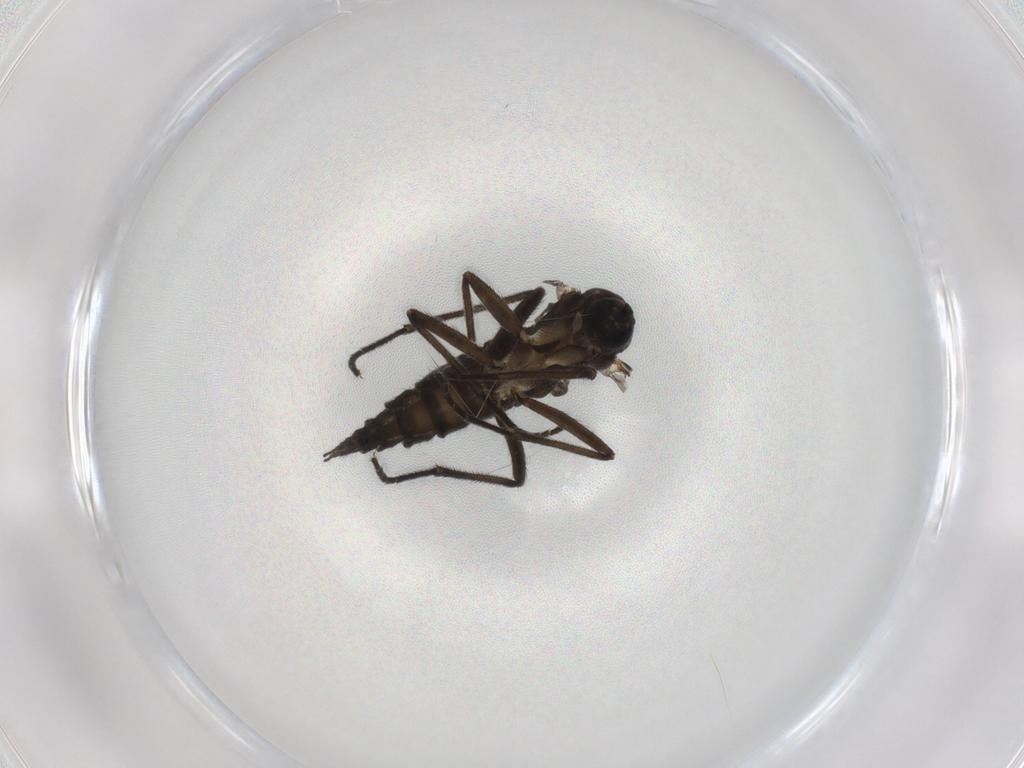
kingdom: Animalia
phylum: Arthropoda
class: Insecta
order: Diptera
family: Sciaridae
